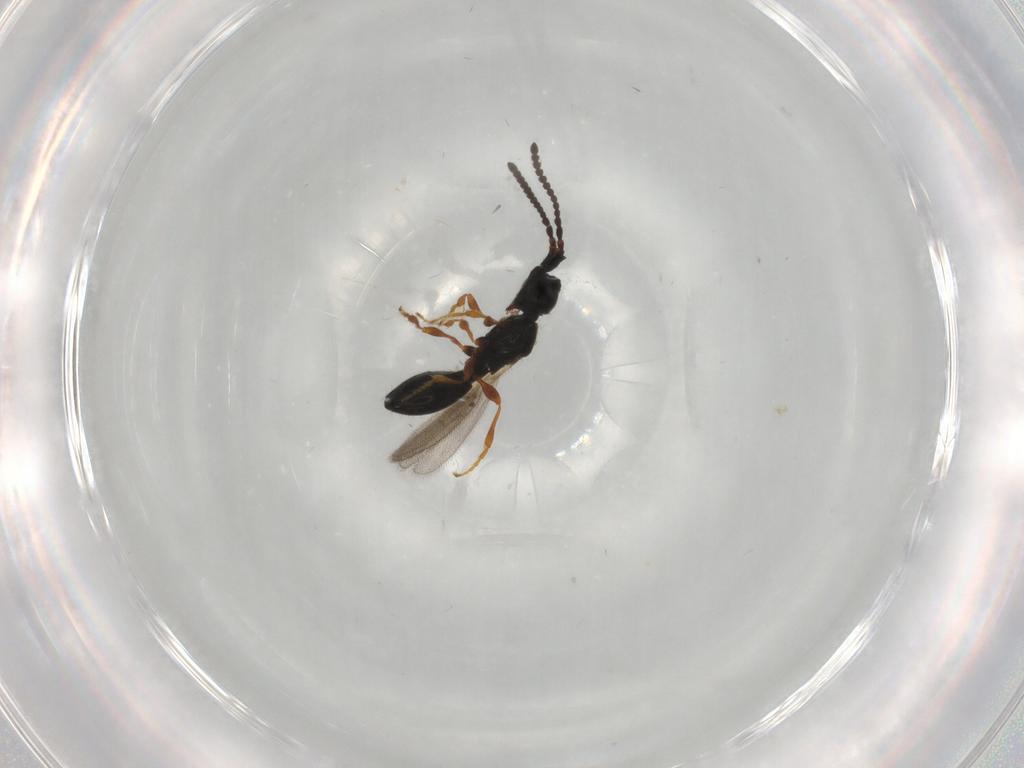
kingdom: Animalia
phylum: Arthropoda
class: Insecta
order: Hymenoptera
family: Diapriidae
